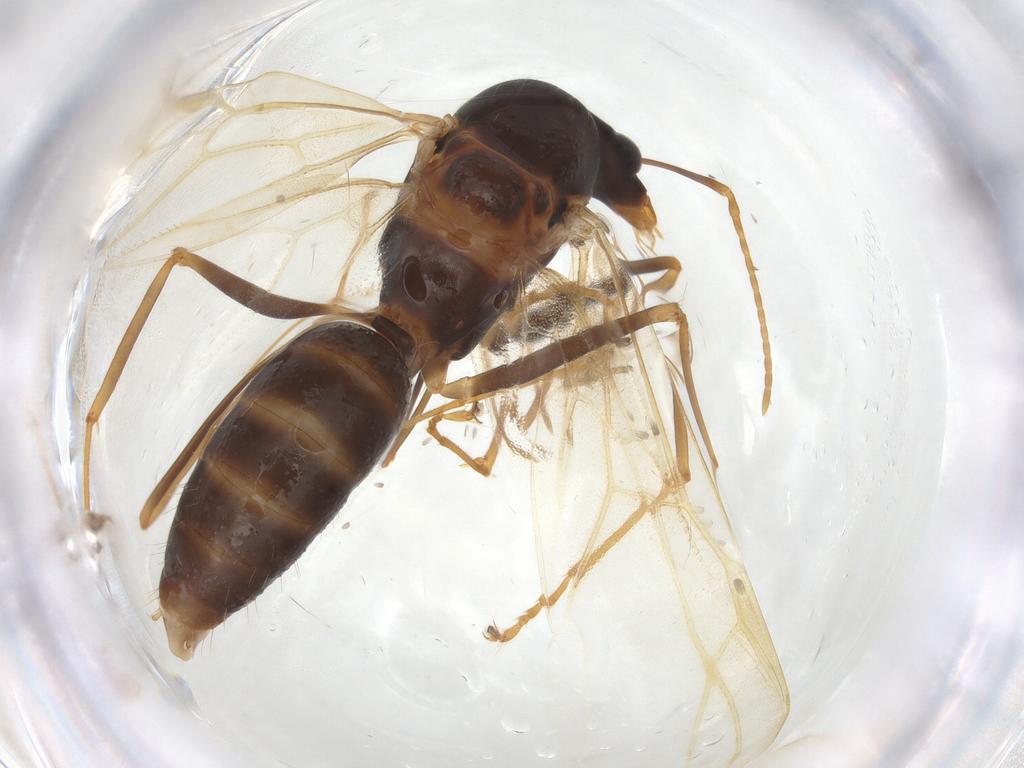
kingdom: Animalia
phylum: Arthropoda
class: Insecta
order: Hymenoptera
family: Formicidae
